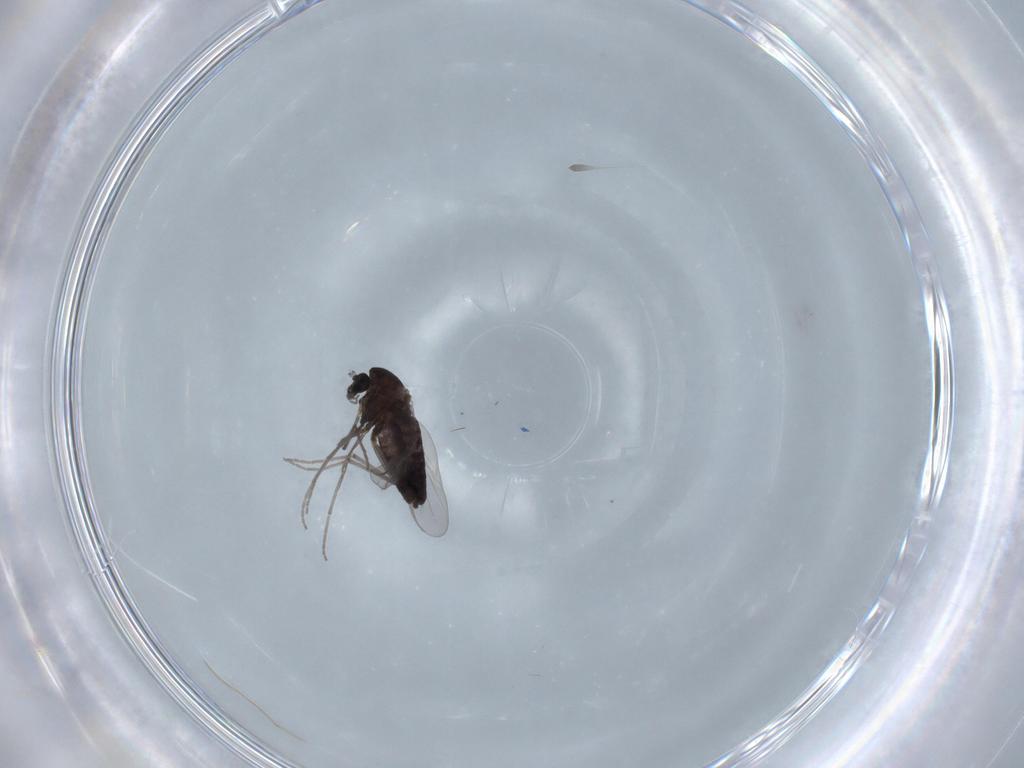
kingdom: Animalia
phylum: Arthropoda
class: Insecta
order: Diptera
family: Chironomidae
